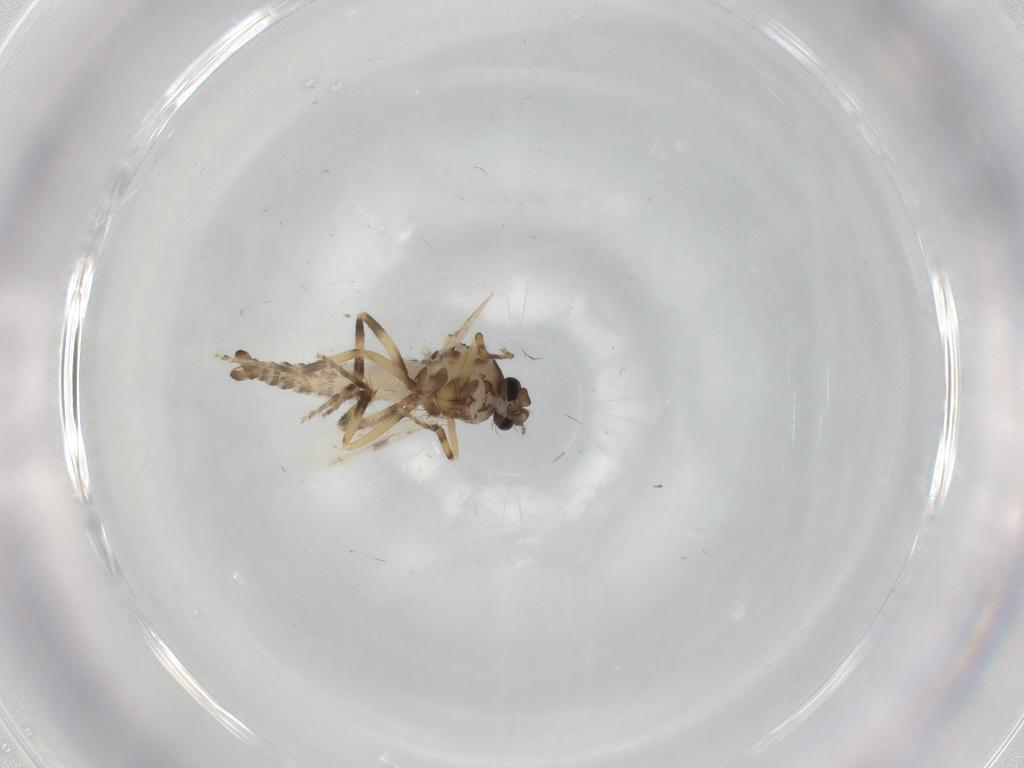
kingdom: Animalia
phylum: Arthropoda
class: Insecta
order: Diptera
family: Ceratopogonidae
